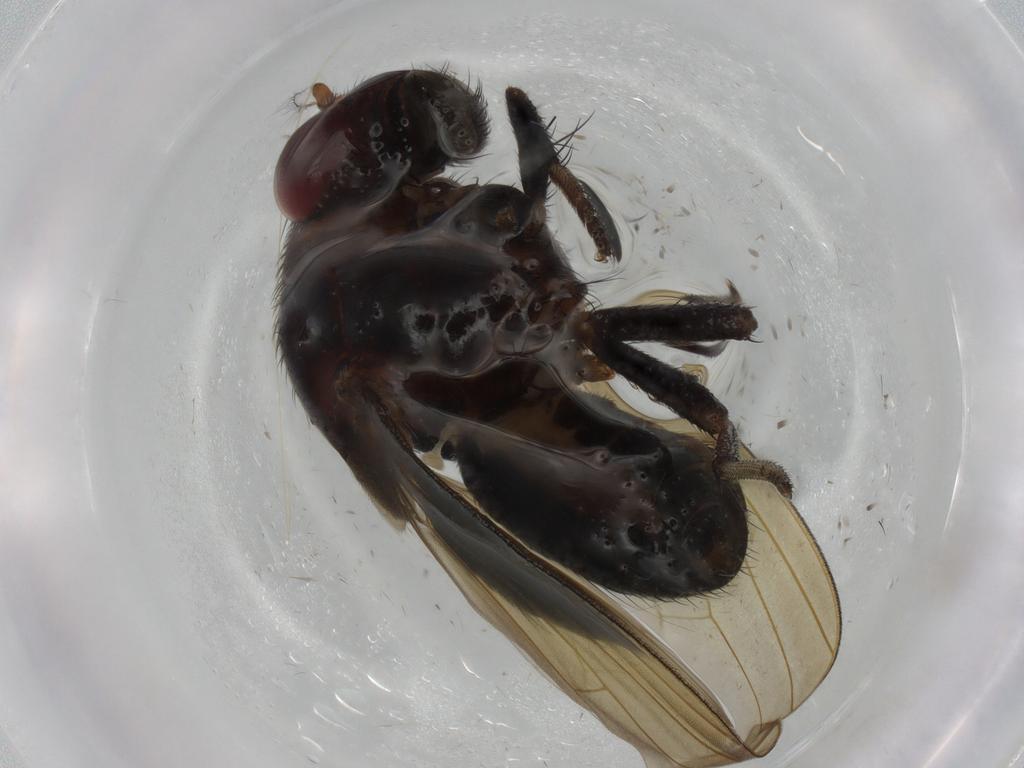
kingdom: Animalia
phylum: Arthropoda
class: Insecta
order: Diptera
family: Lauxaniidae
